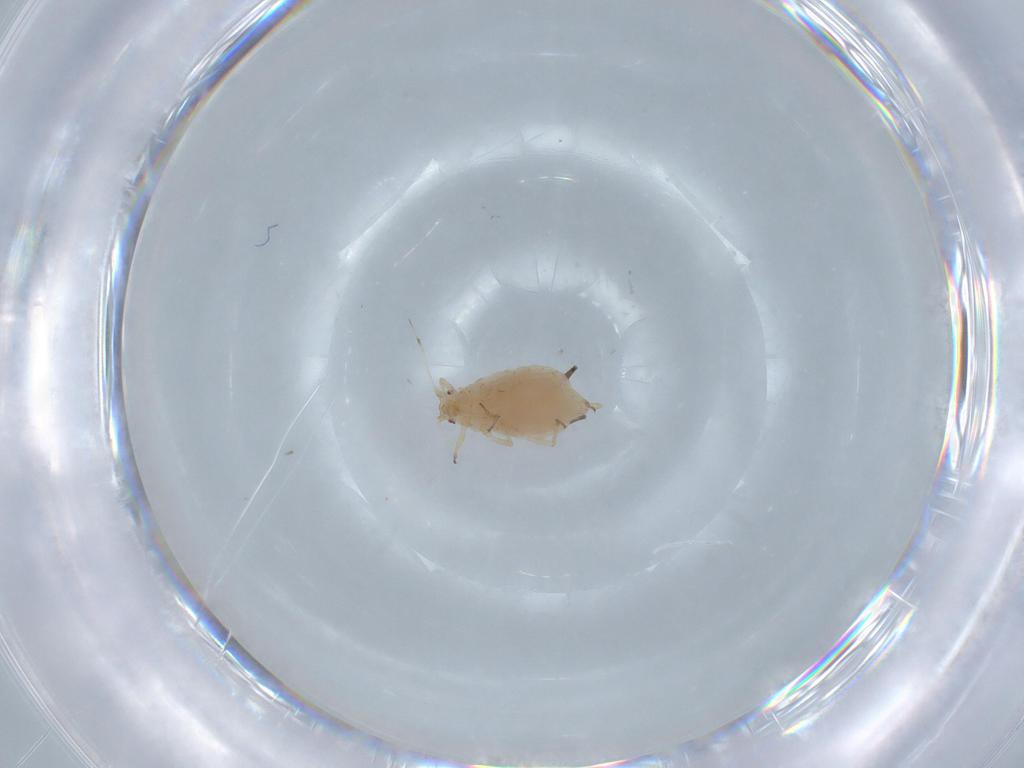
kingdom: Animalia
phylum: Arthropoda
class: Insecta
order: Hemiptera
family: Aphididae
